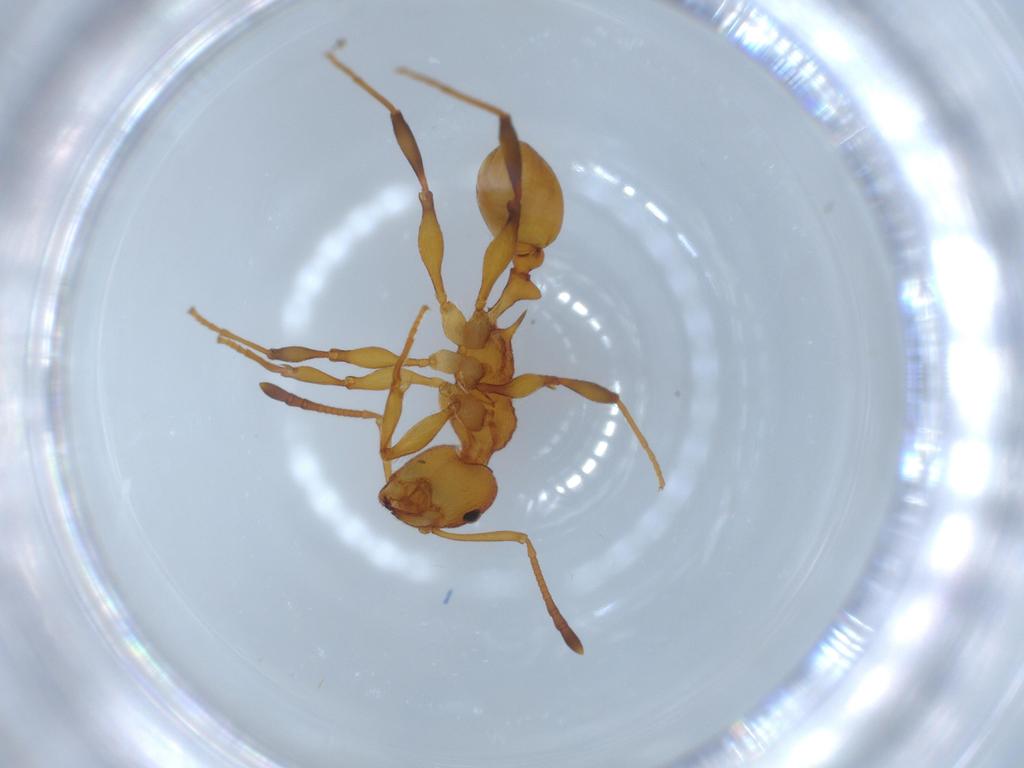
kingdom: Animalia
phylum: Arthropoda
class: Insecta
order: Hymenoptera
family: Formicidae
